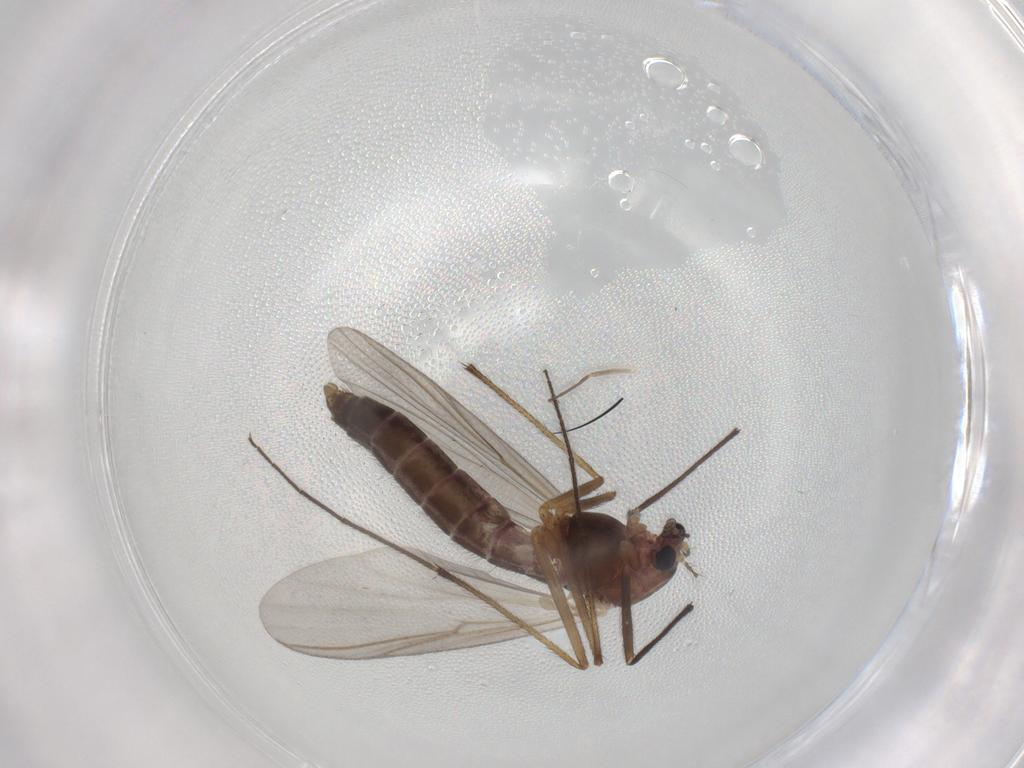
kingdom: Animalia
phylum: Arthropoda
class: Insecta
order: Diptera
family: Chironomidae
